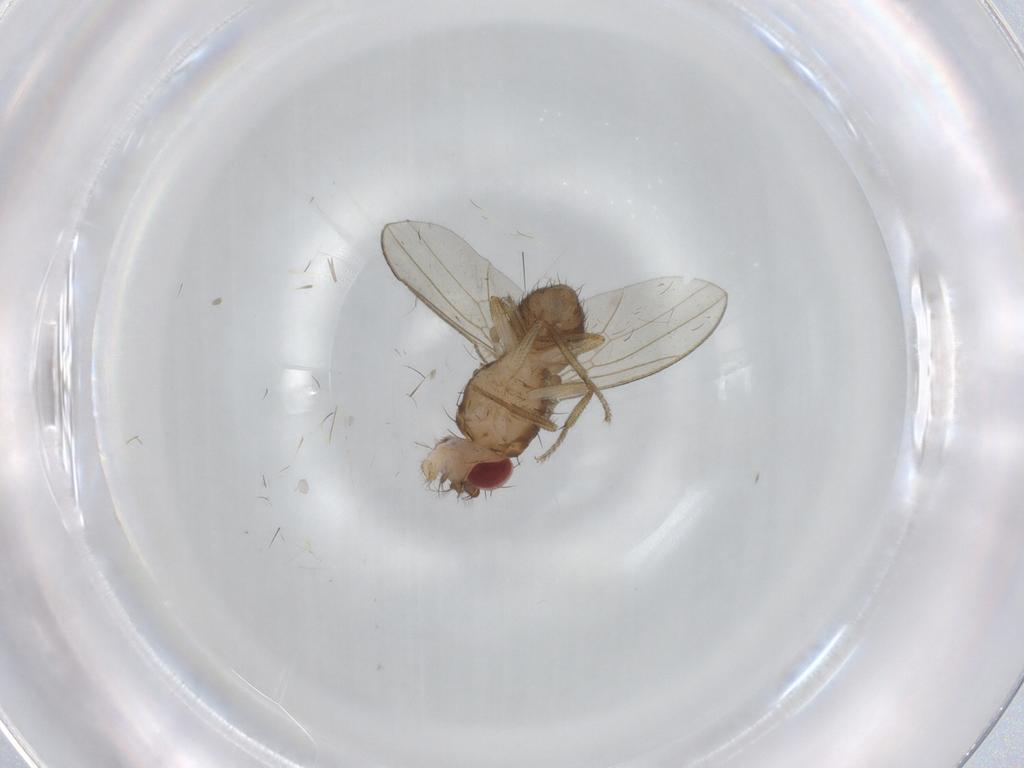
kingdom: Animalia
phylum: Arthropoda
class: Insecta
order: Diptera
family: Drosophilidae
